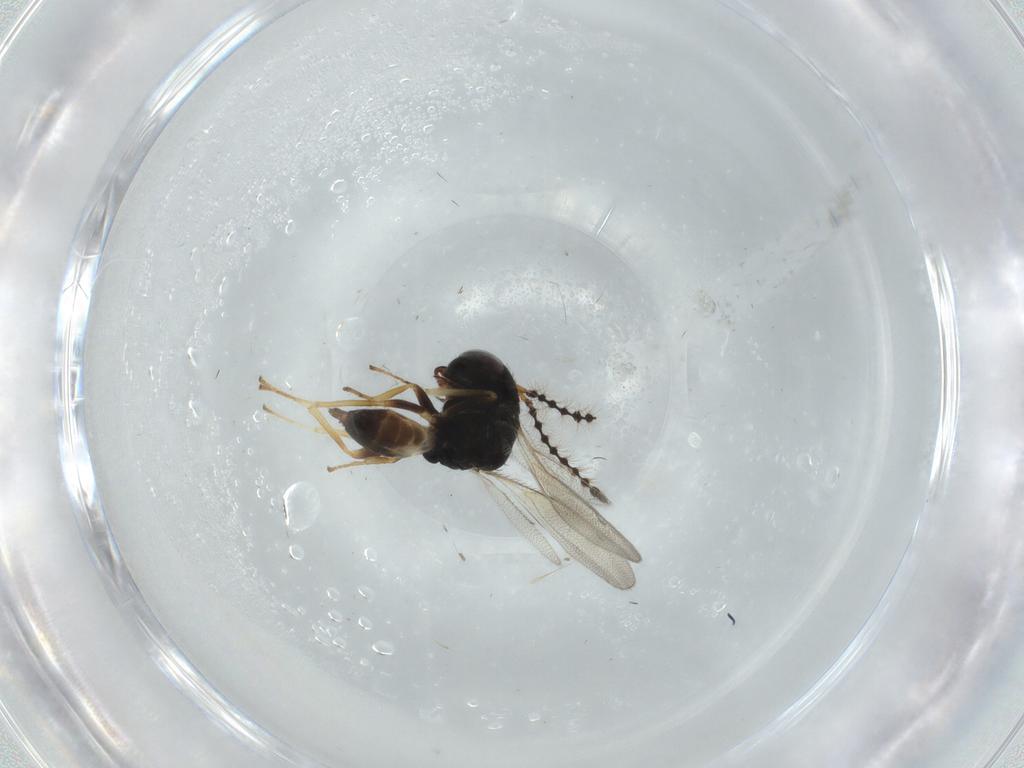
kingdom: Animalia
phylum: Arthropoda
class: Insecta
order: Hymenoptera
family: Pteromalidae
